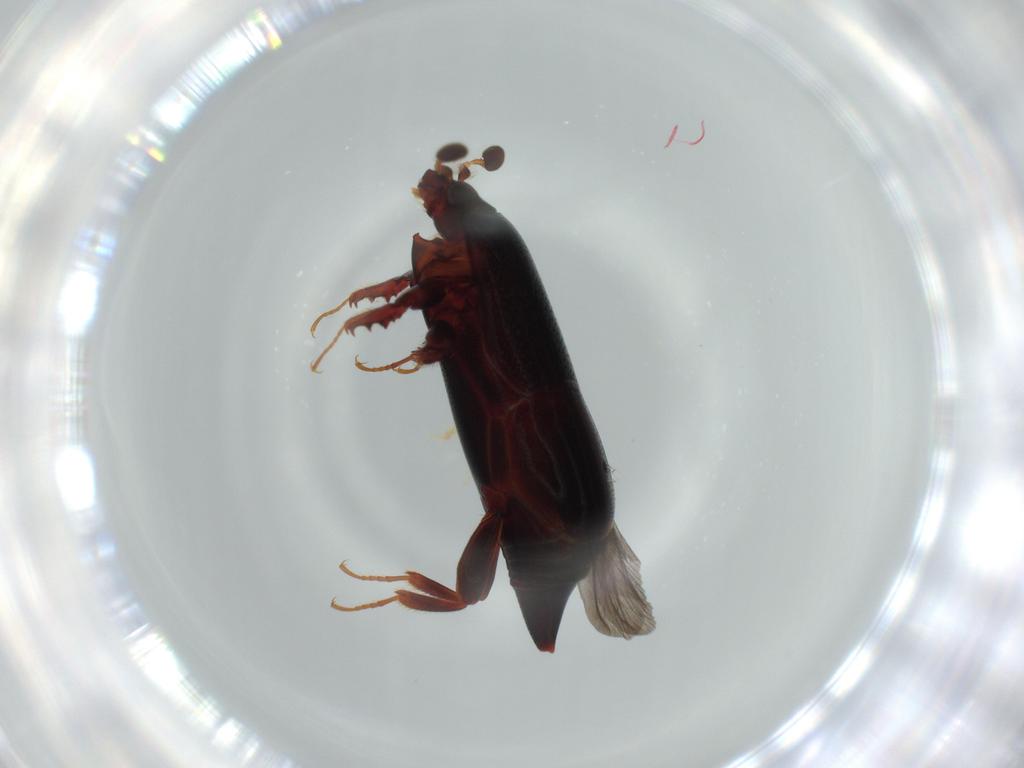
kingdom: Animalia
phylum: Arthropoda
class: Insecta
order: Coleoptera
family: Histeridae
